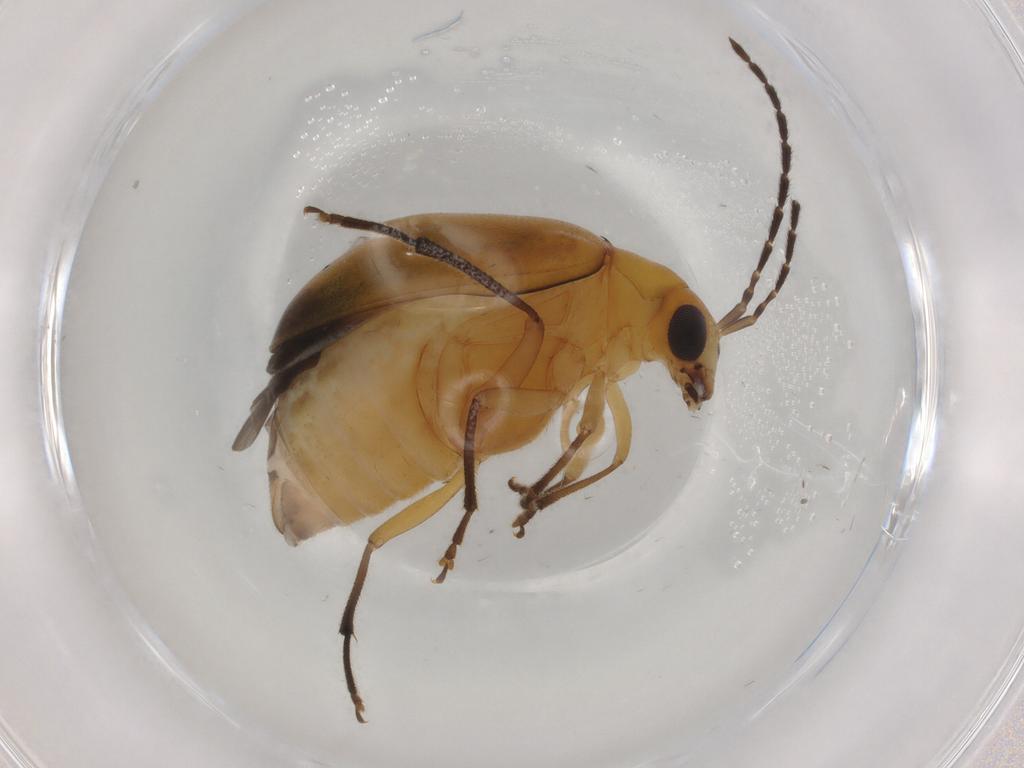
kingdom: Animalia
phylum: Arthropoda
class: Insecta
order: Coleoptera
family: Chrysomelidae
